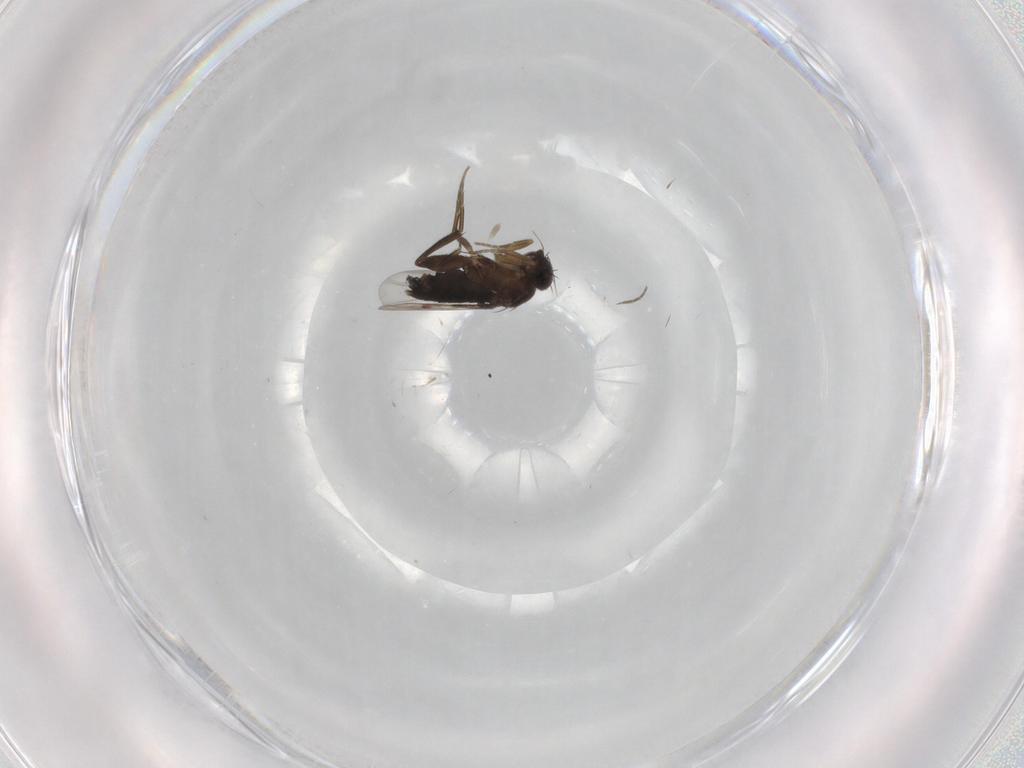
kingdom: Animalia
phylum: Arthropoda
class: Insecta
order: Diptera
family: Phoridae
